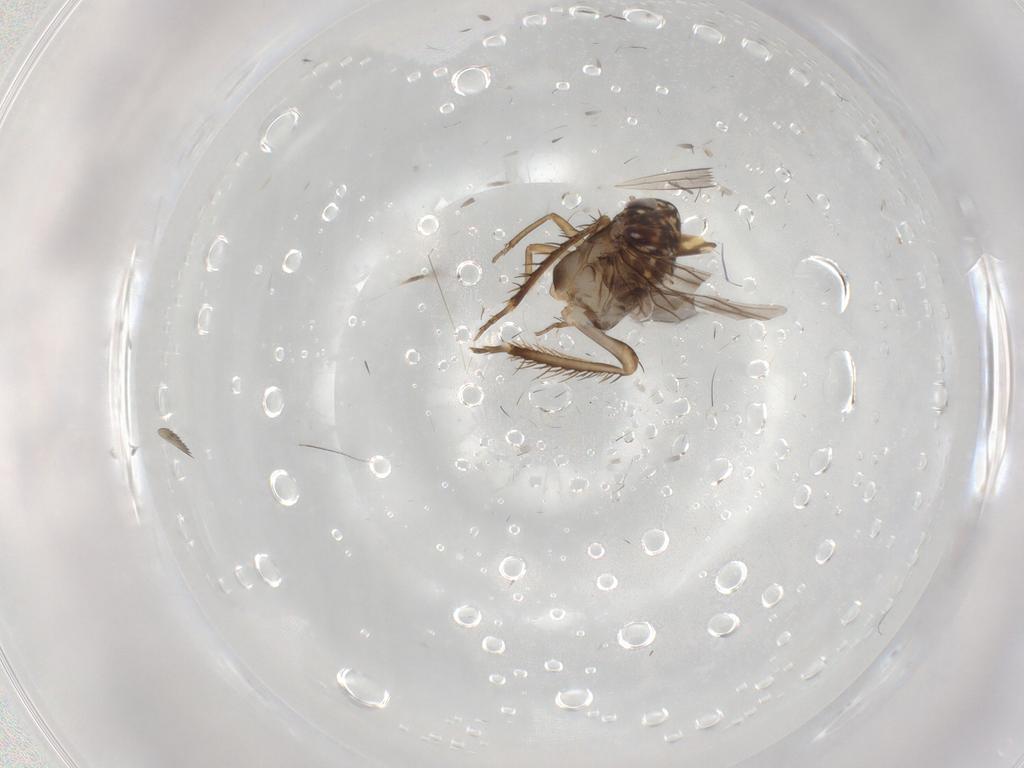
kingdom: Animalia
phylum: Arthropoda
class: Insecta
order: Hemiptera
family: Cicadellidae
